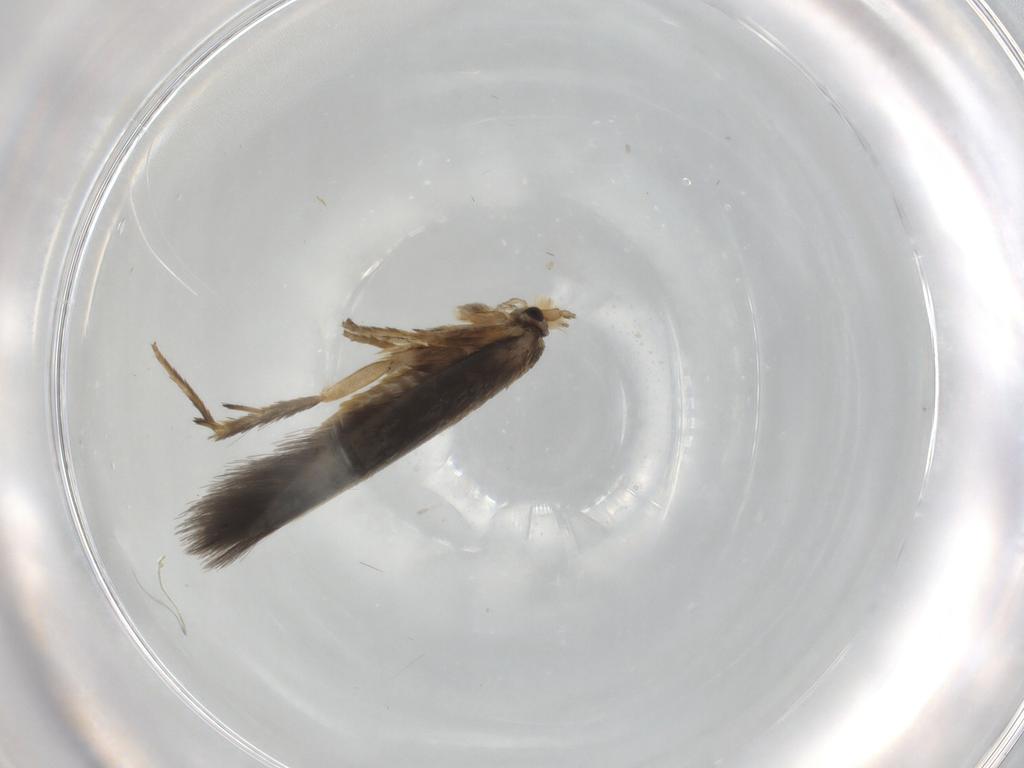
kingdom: Animalia
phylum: Arthropoda
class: Insecta
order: Lepidoptera
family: Nepticulidae
